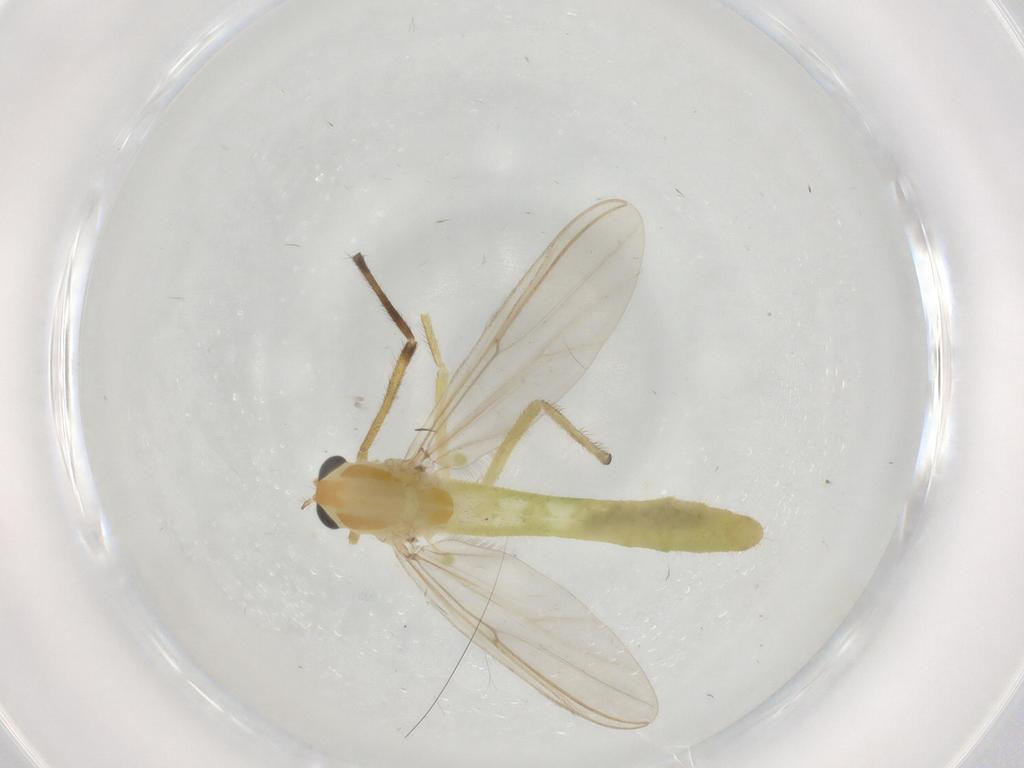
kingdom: Animalia
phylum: Arthropoda
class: Insecta
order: Diptera
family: Chironomidae
